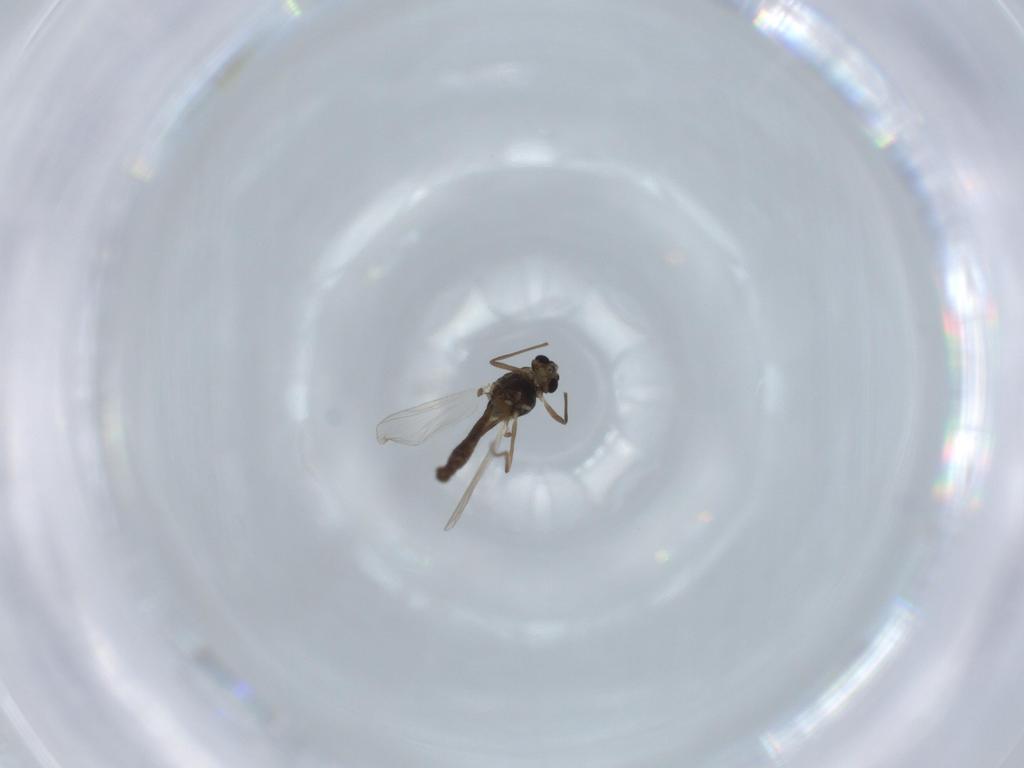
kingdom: Animalia
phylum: Arthropoda
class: Insecta
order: Diptera
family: Chironomidae
